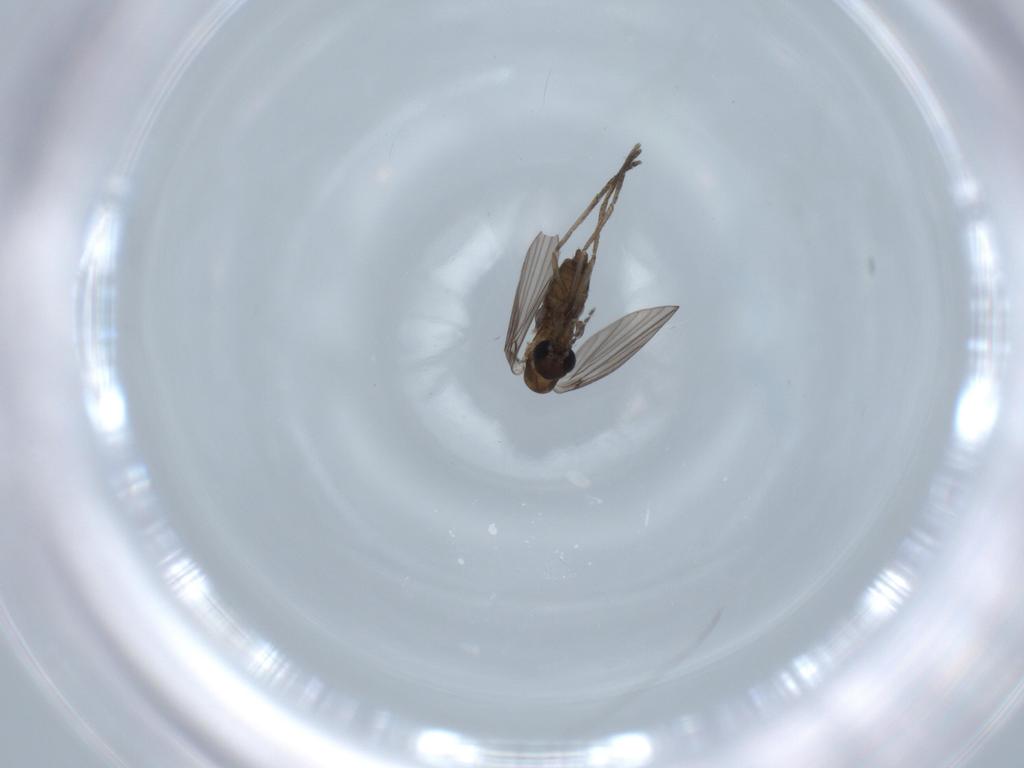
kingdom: Animalia
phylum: Arthropoda
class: Insecta
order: Diptera
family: Psychodidae
